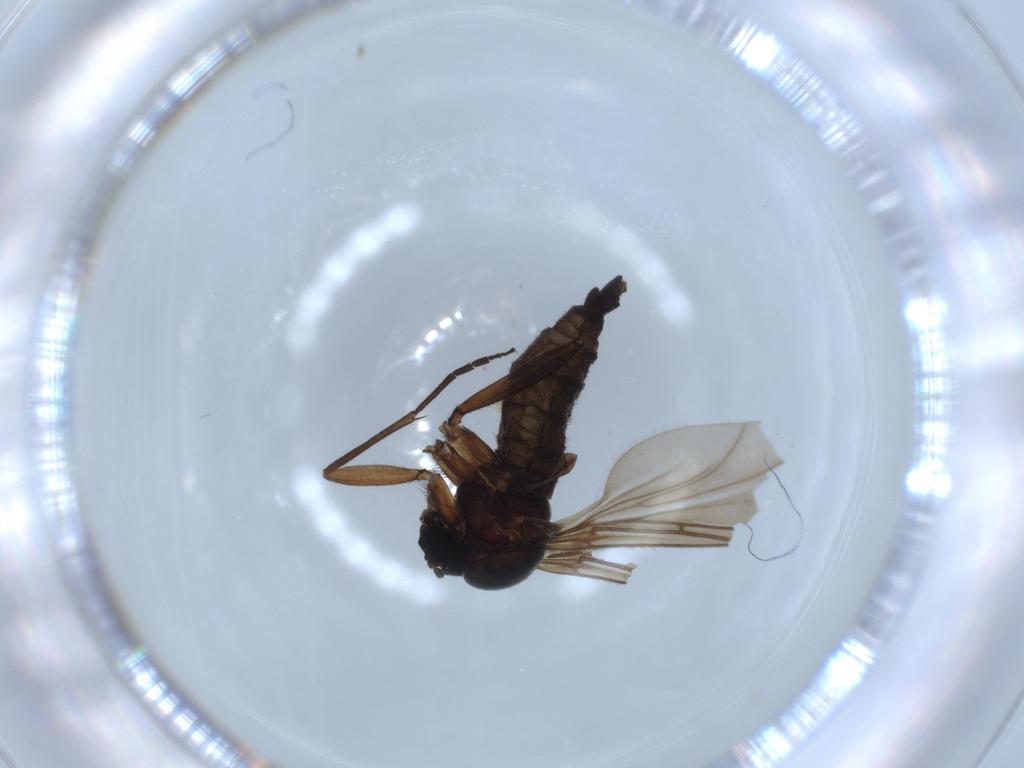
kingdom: Animalia
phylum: Arthropoda
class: Insecta
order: Diptera
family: Sciaridae
